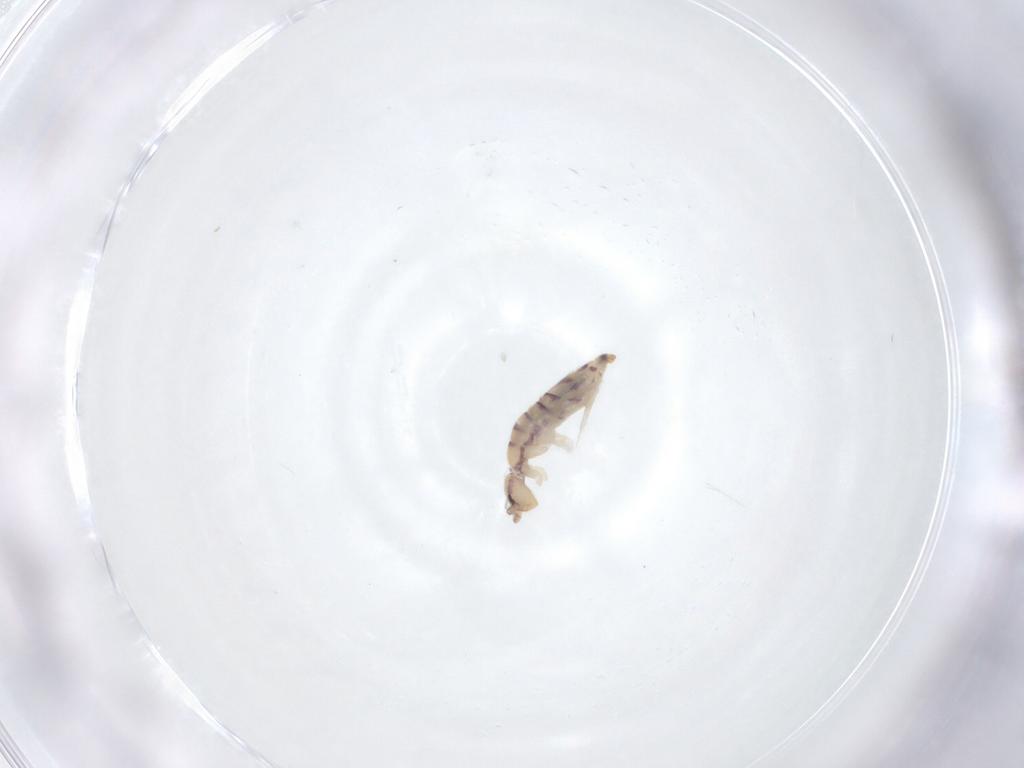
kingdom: Animalia
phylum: Arthropoda
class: Collembola
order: Entomobryomorpha
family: Entomobryidae
